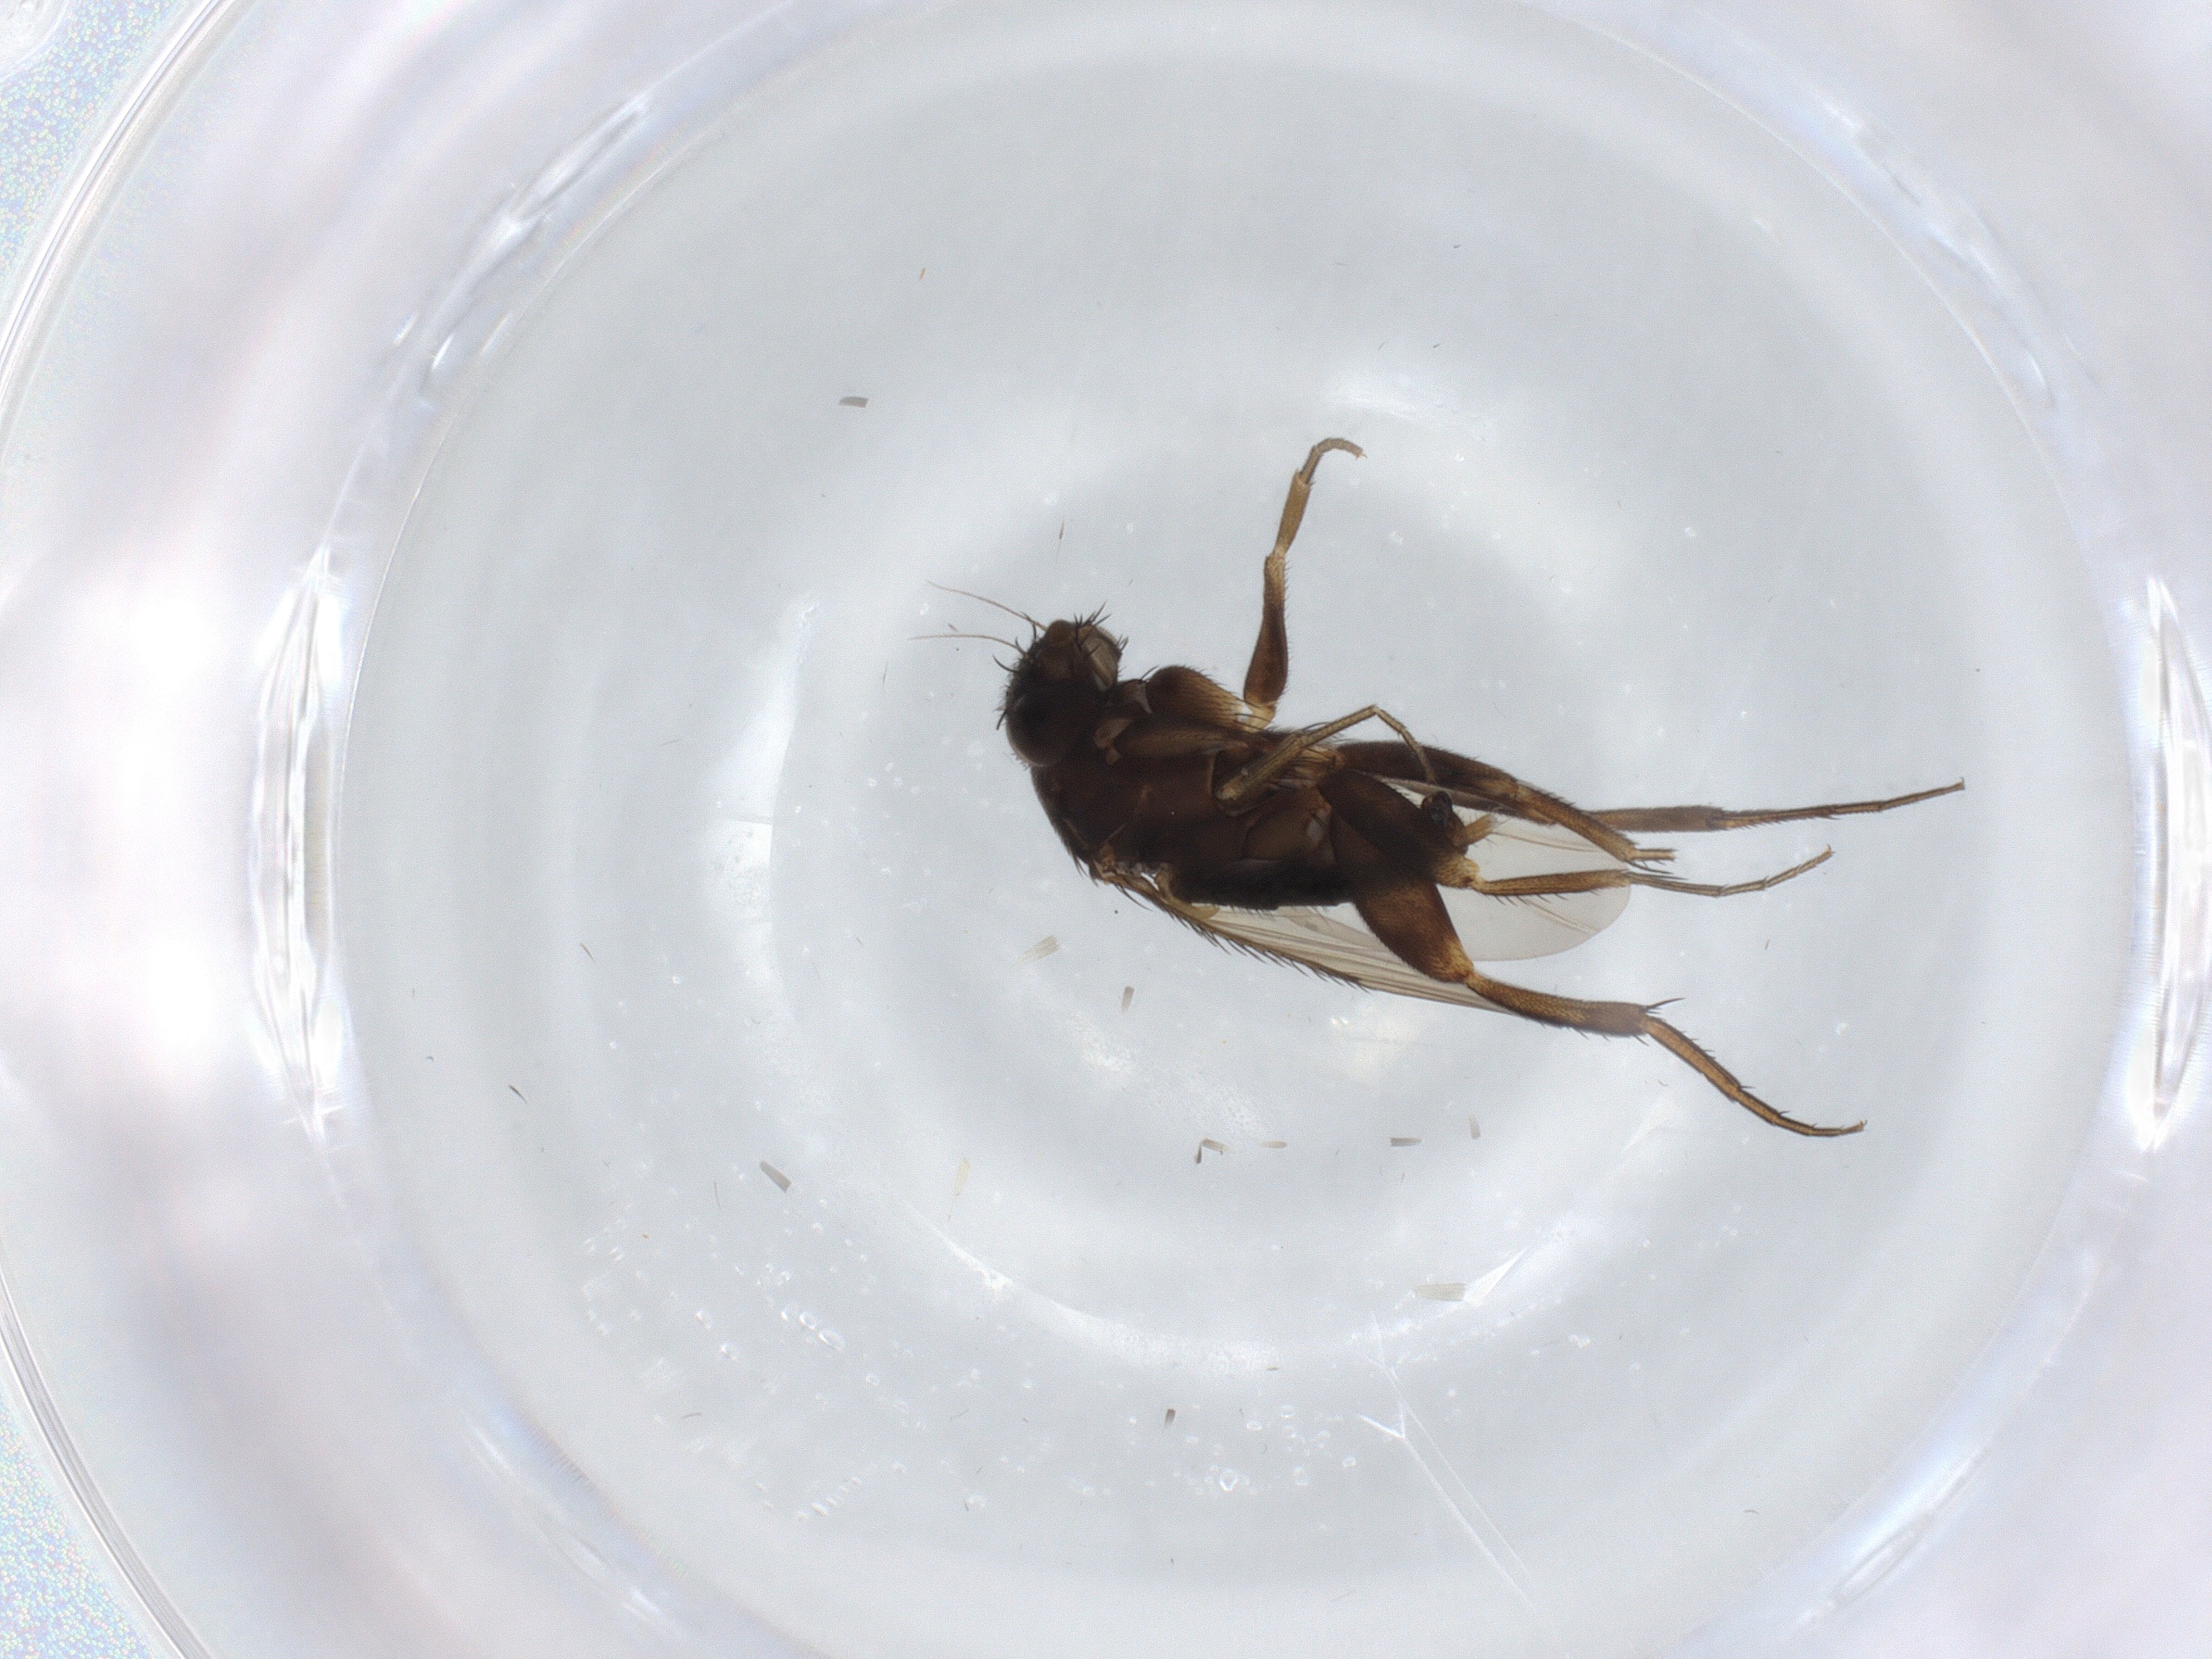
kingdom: Animalia
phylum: Arthropoda
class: Insecta
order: Diptera
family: Phoridae
